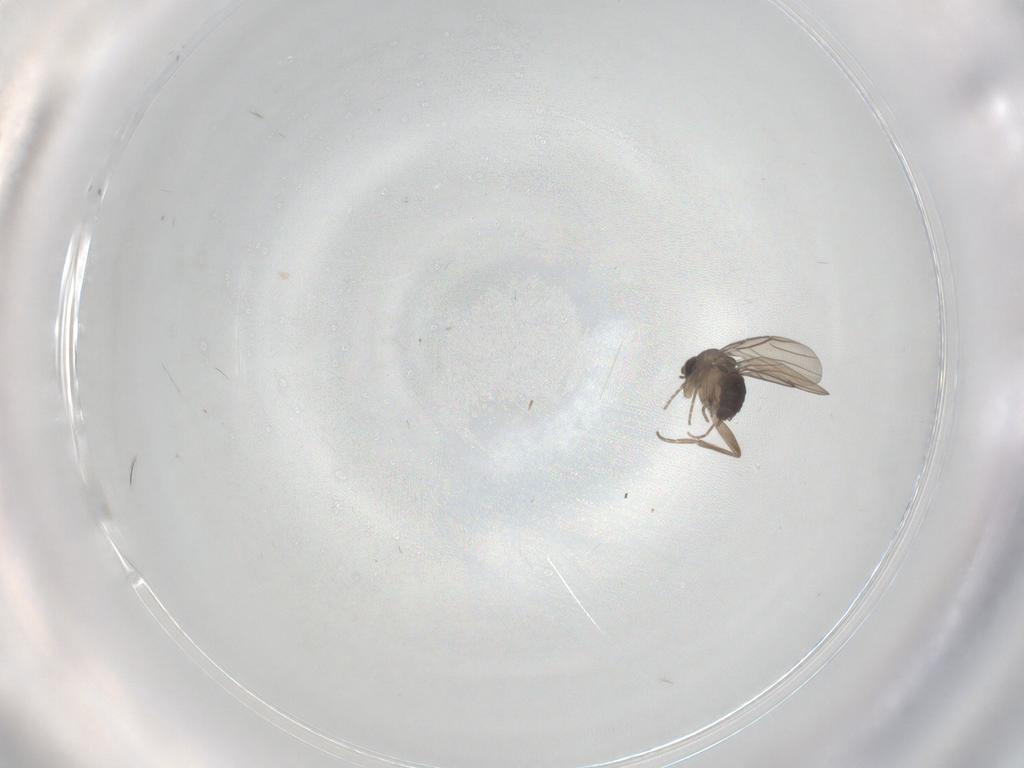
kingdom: Animalia
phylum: Arthropoda
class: Insecta
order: Diptera
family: Phoridae
